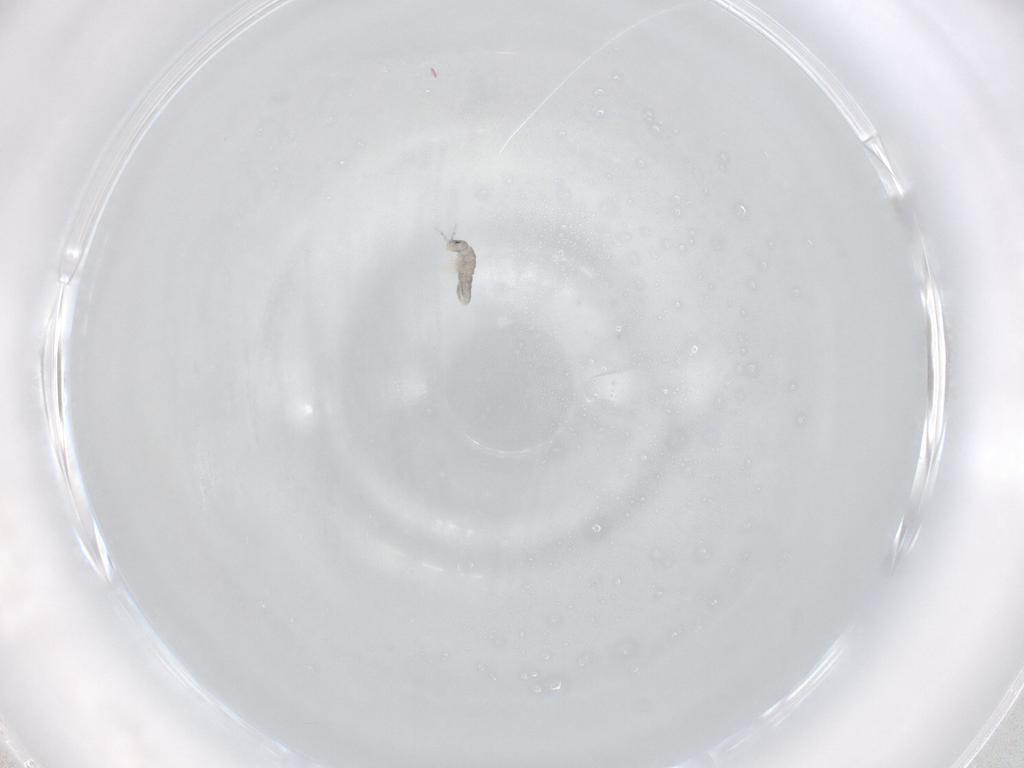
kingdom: Animalia
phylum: Arthropoda
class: Collembola
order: Entomobryomorpha
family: Isotomidae
